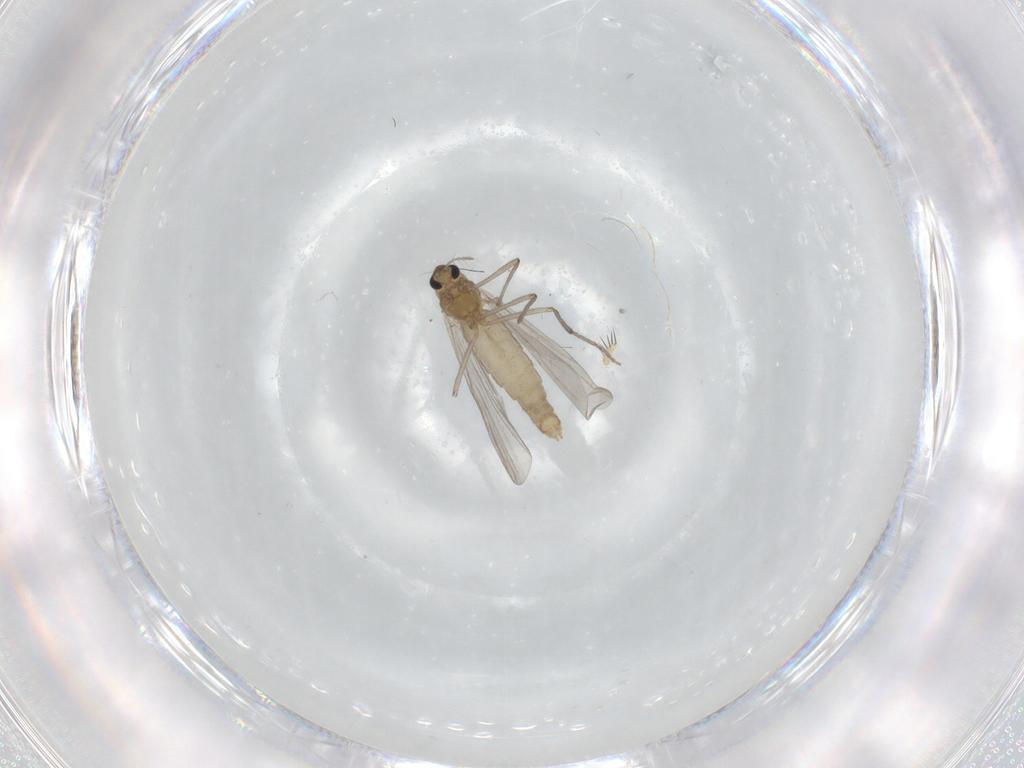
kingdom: Animalia
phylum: Arthropoda
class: Insecta
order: Diptera
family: Chironomidae
